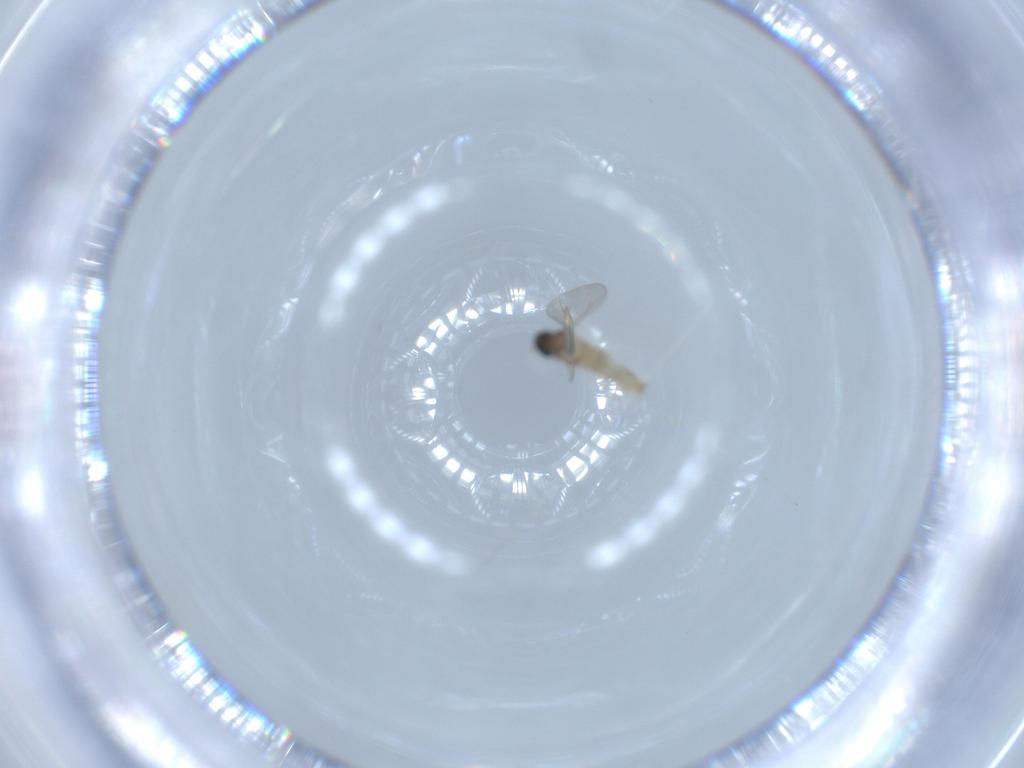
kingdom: Animalia
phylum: Arthropoda
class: Insecta
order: Diptera
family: Cecidomyiidae
